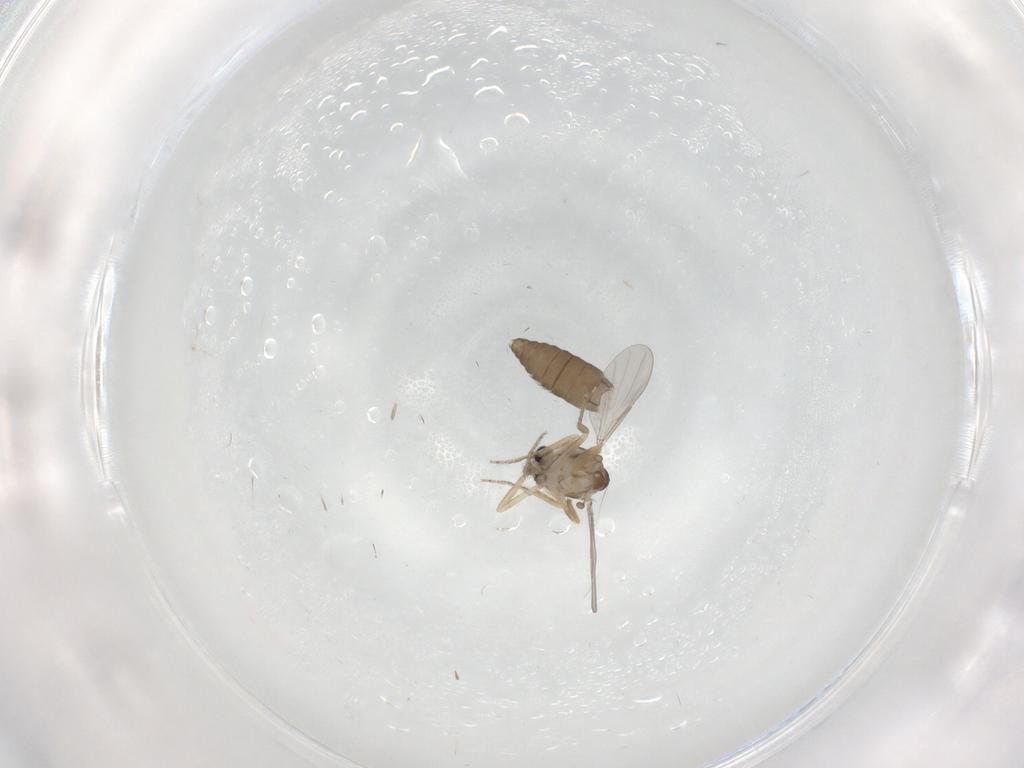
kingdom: Animalia
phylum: Arthropoda
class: Insecta
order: Diptera
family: Ceratopogonidae
